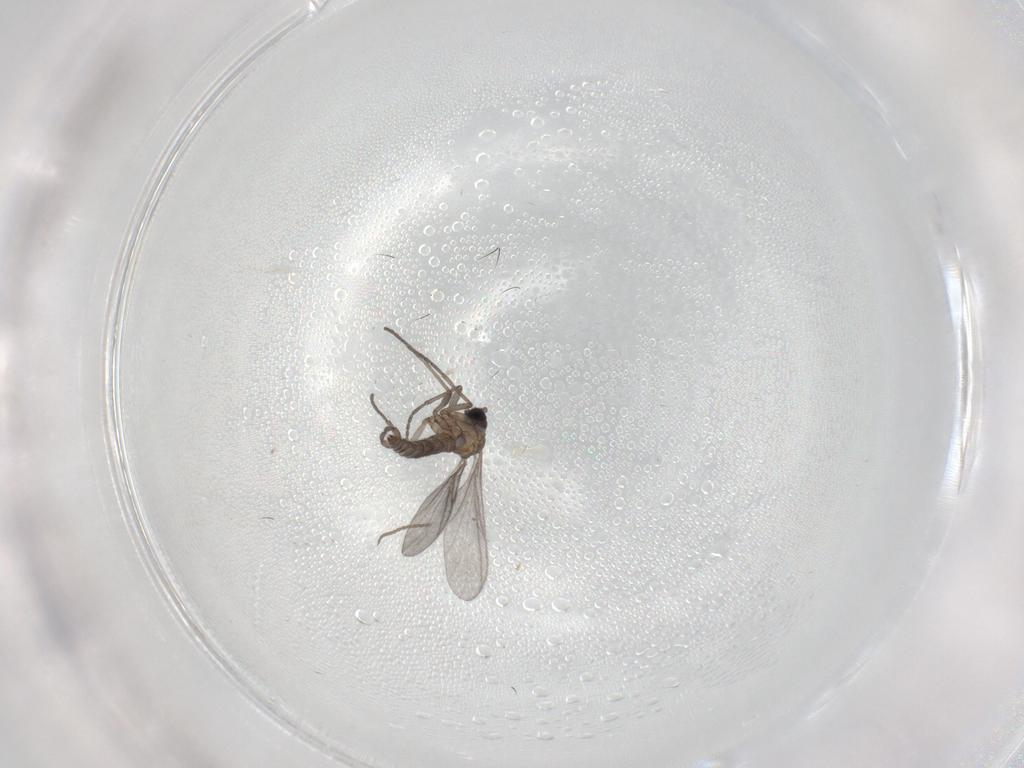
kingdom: Animalia
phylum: Arthropoda
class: Insecta
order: Diptera
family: Sciaridae
